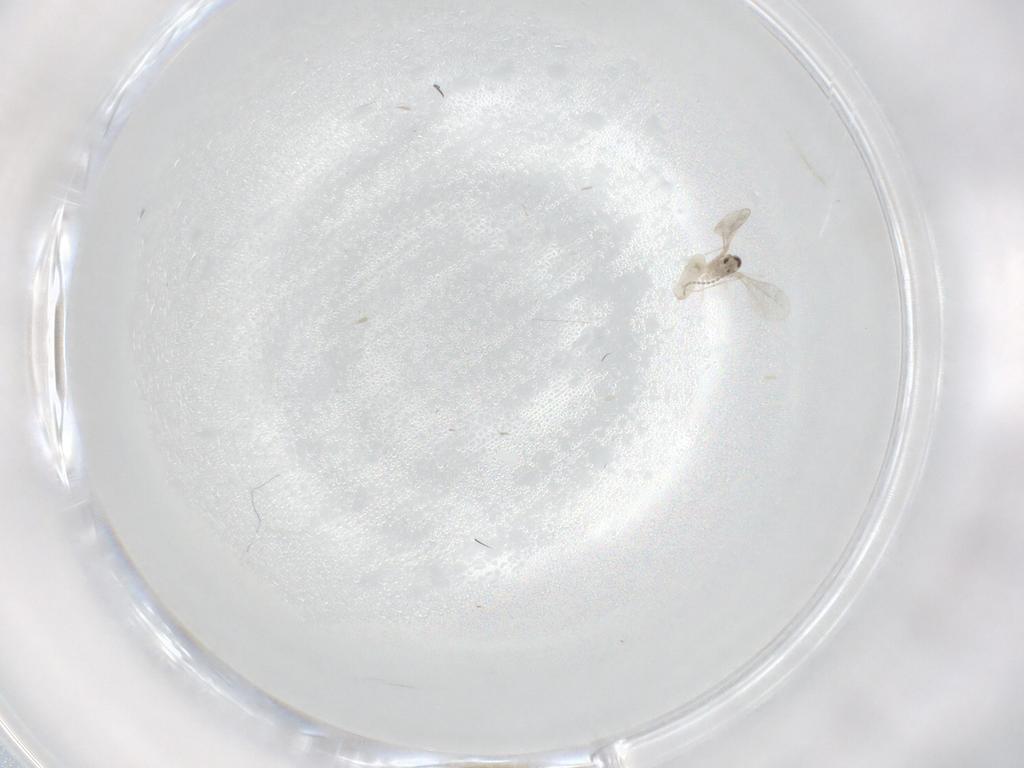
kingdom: Animalia
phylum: Arthropoda
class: Insecta
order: Diptera
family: Cecidomyiidae
